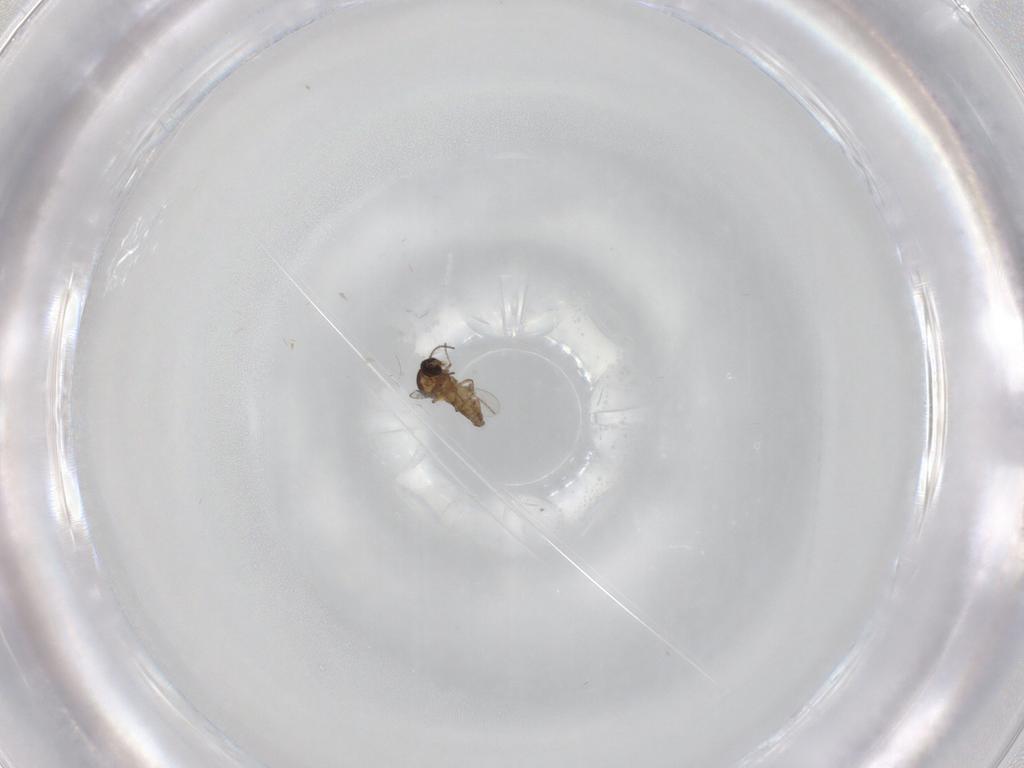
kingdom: Animalia
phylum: Arthropoda
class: Insecta
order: Diptera
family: Ceratopogonidae
